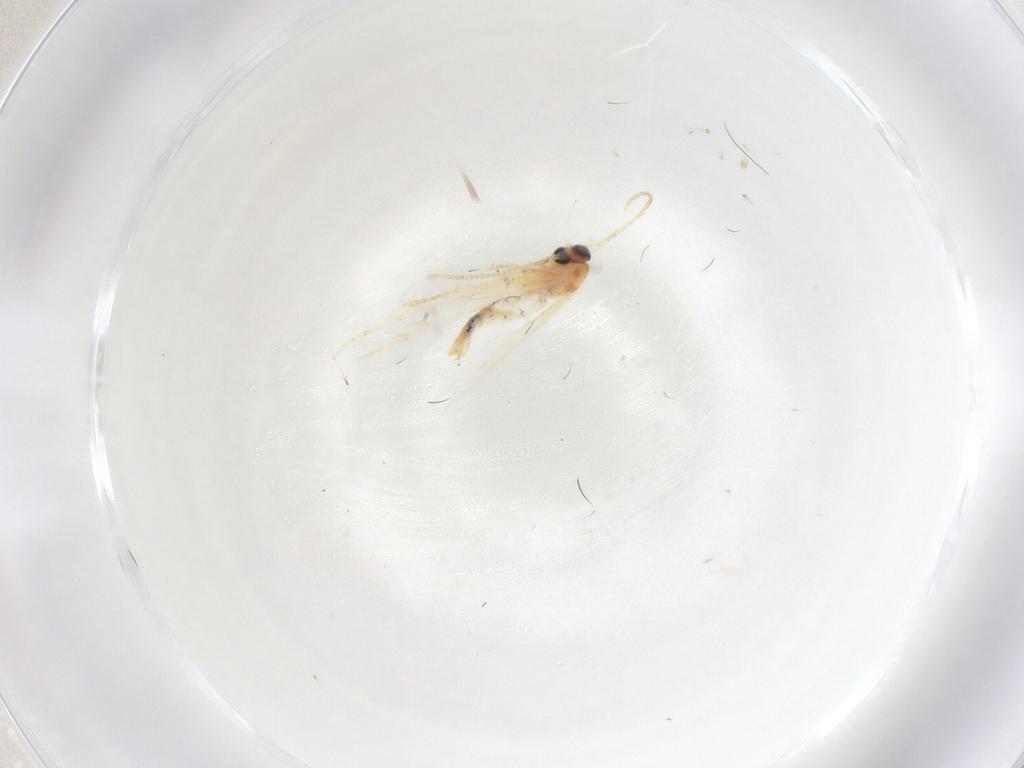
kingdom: Animalia
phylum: Arthropoda
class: Insecta
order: Lepidoptera
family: Gelechiidae
